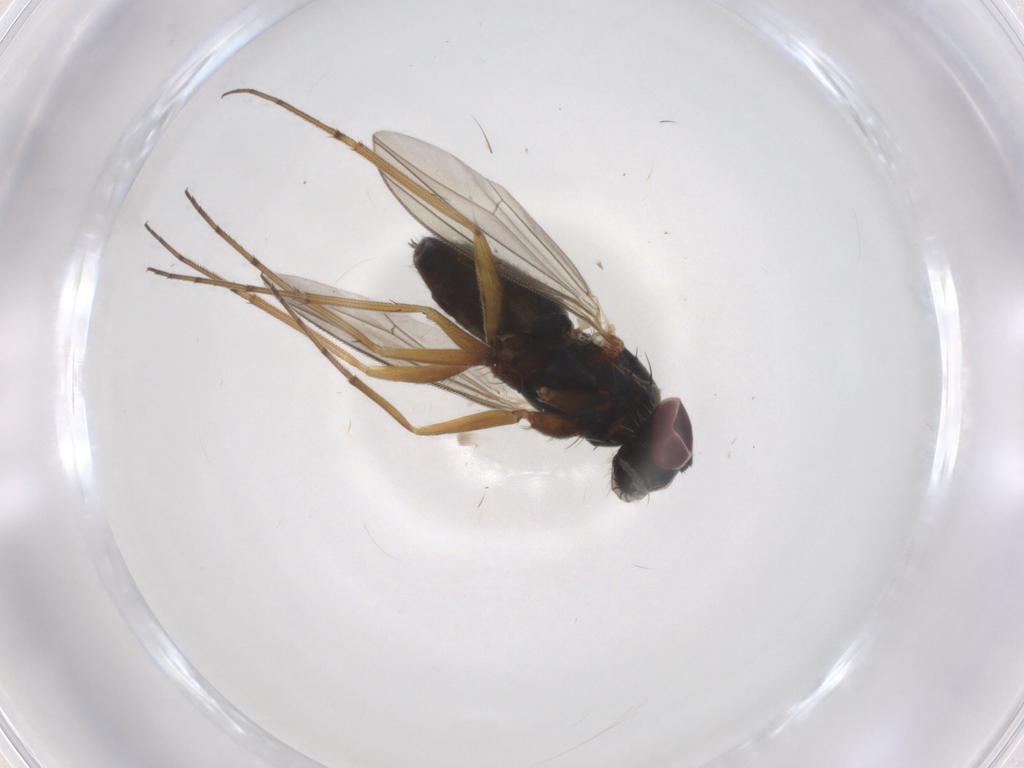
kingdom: Animalia
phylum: Arthropoda
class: Insecta
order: Diptera
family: Dolichopodidae
